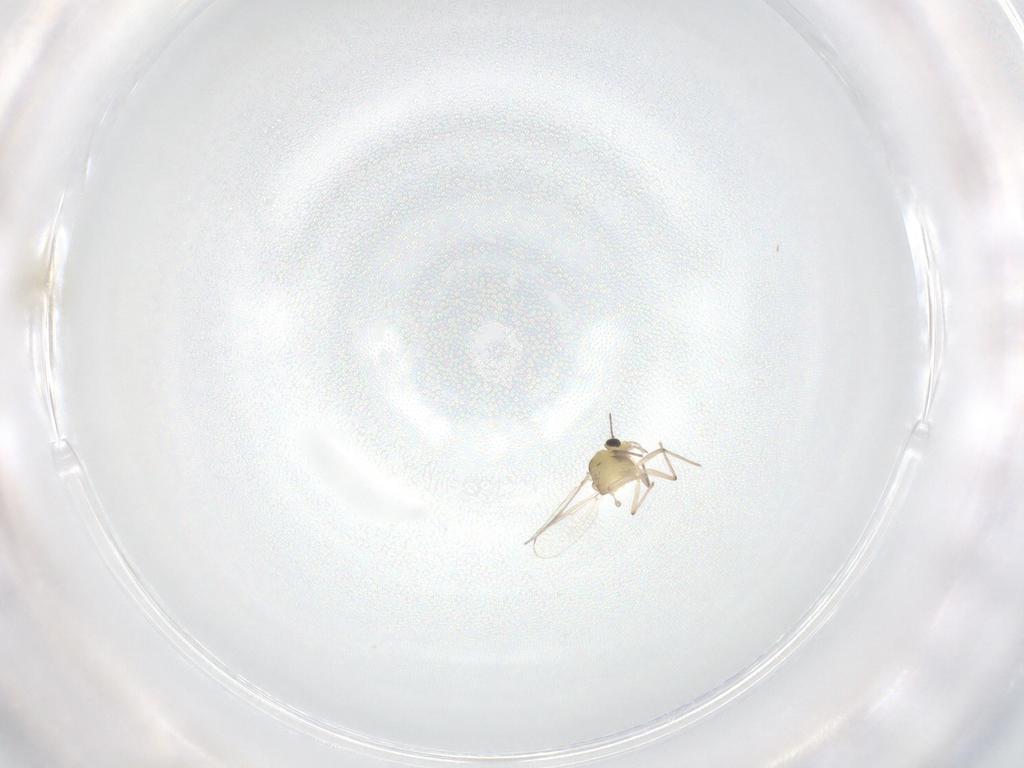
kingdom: Animalia
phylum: Arthropoda
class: Insecta
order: Diptera
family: Chironomidae
